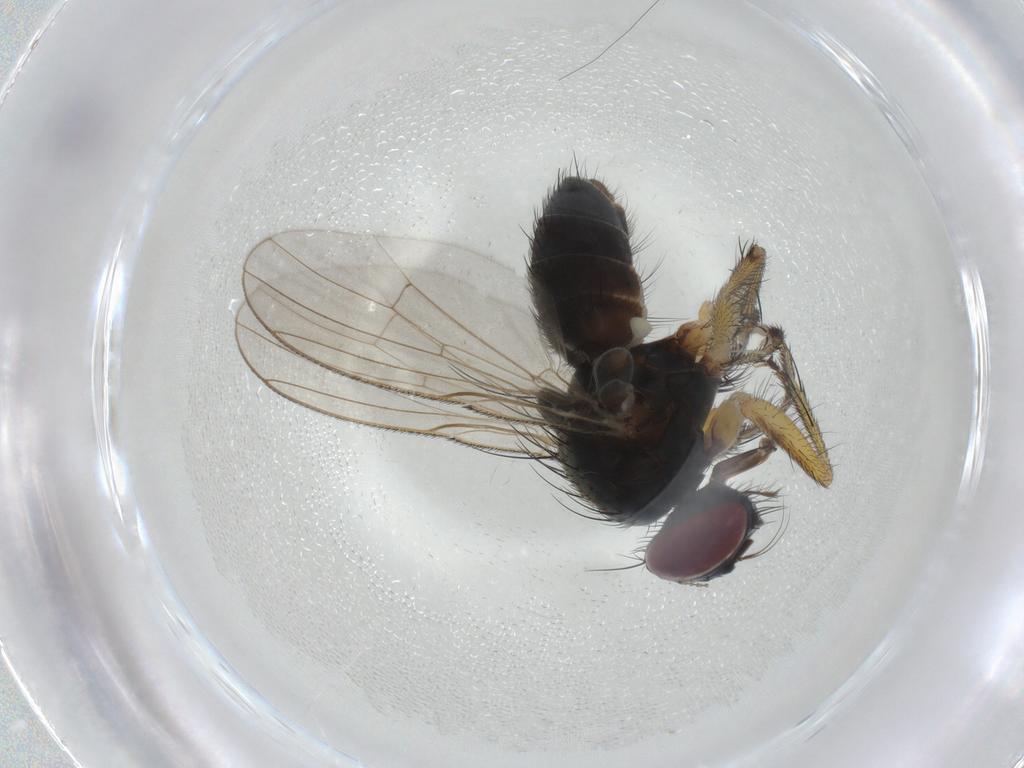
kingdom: Animalia
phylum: Arthropoda
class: Insecta
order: Diptera
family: Muscidae
